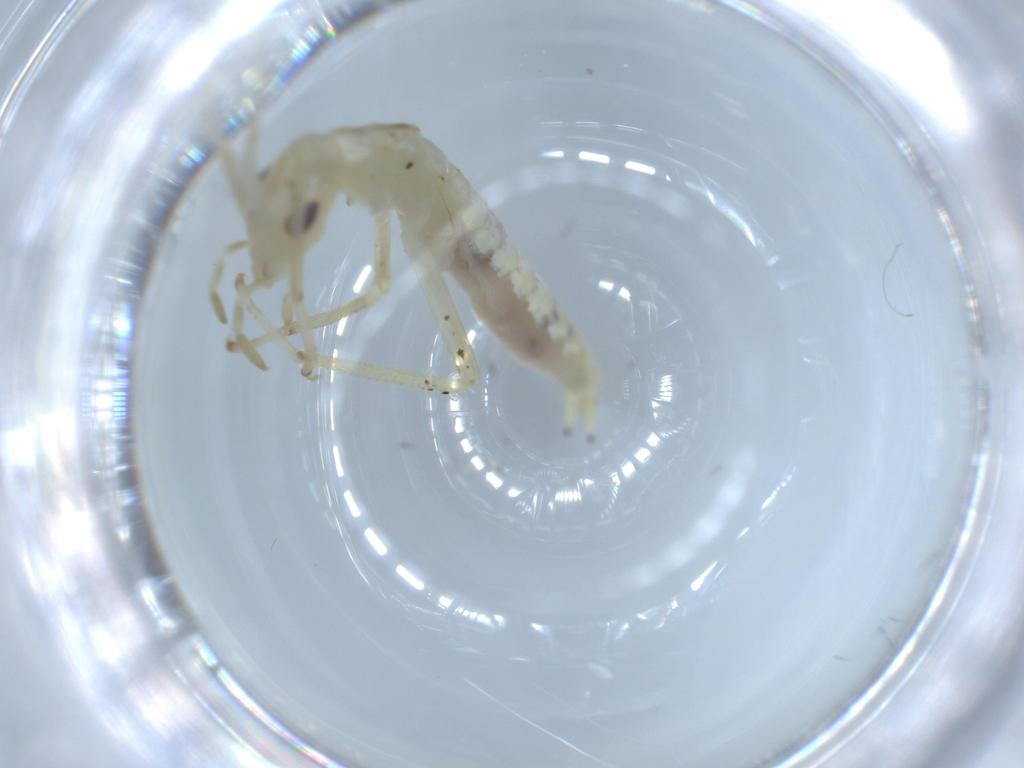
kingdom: Animalia
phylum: Arthropoda
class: Insecta
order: Orthoptera
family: Oecanthidae
